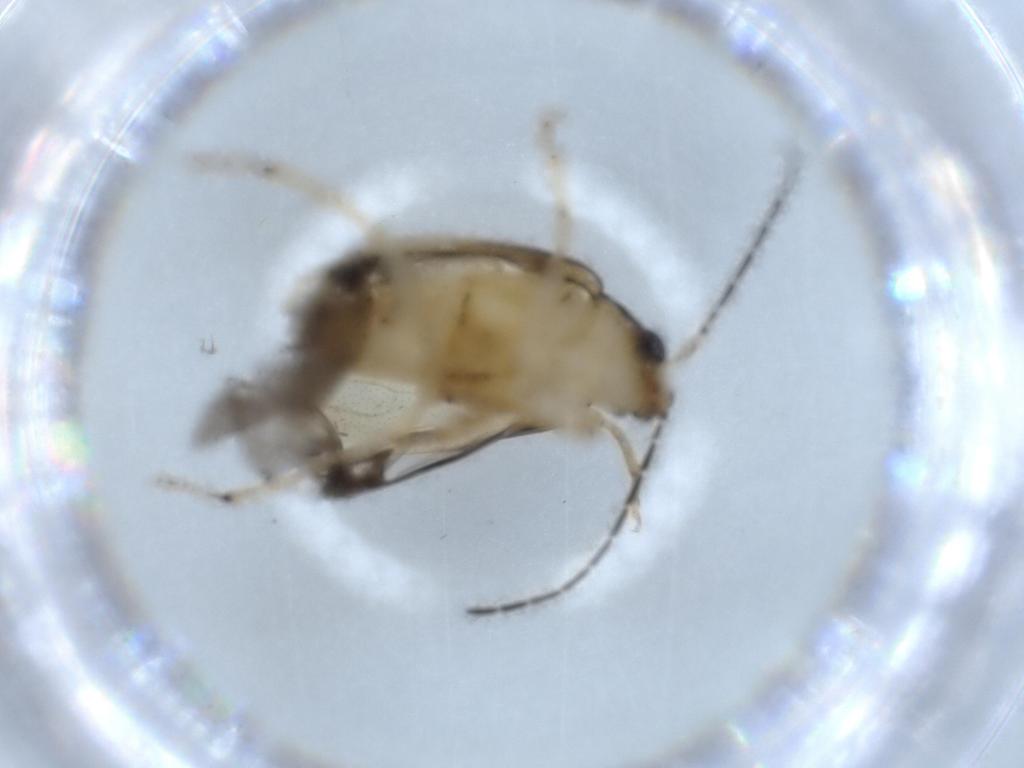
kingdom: Animalia
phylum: Arthropoda
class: Insecta
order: Coleoptera
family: Chrysomelidae
